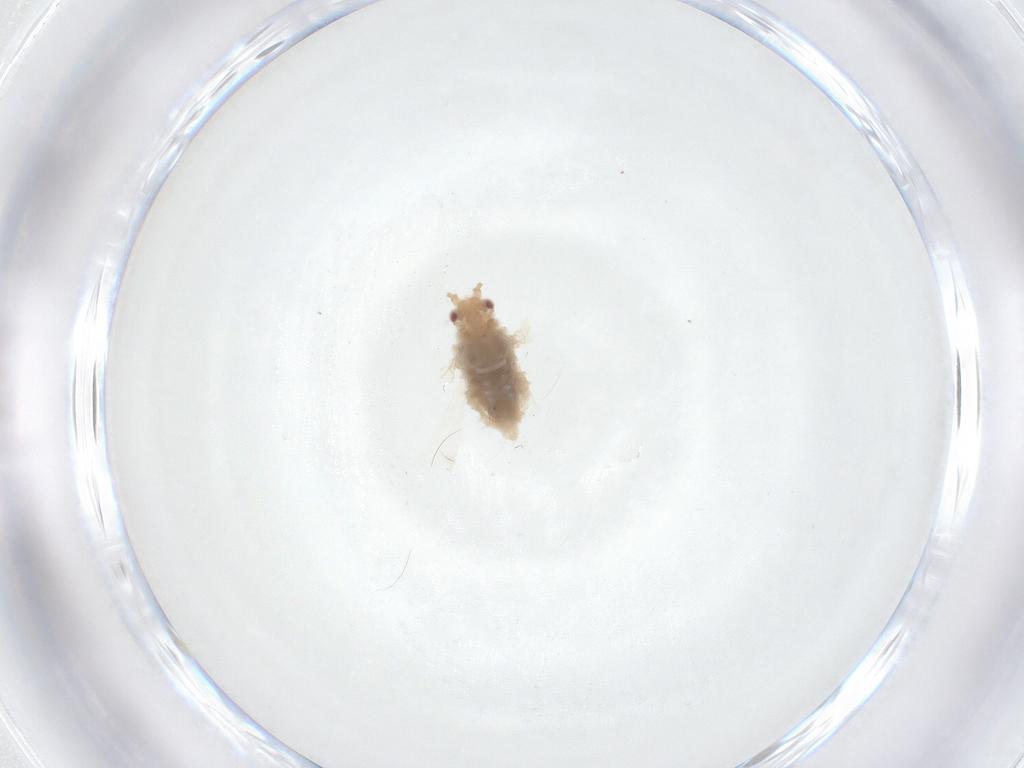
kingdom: Animalia
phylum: Arthropoda
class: Insecta
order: Hemiptera
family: Aphididae
